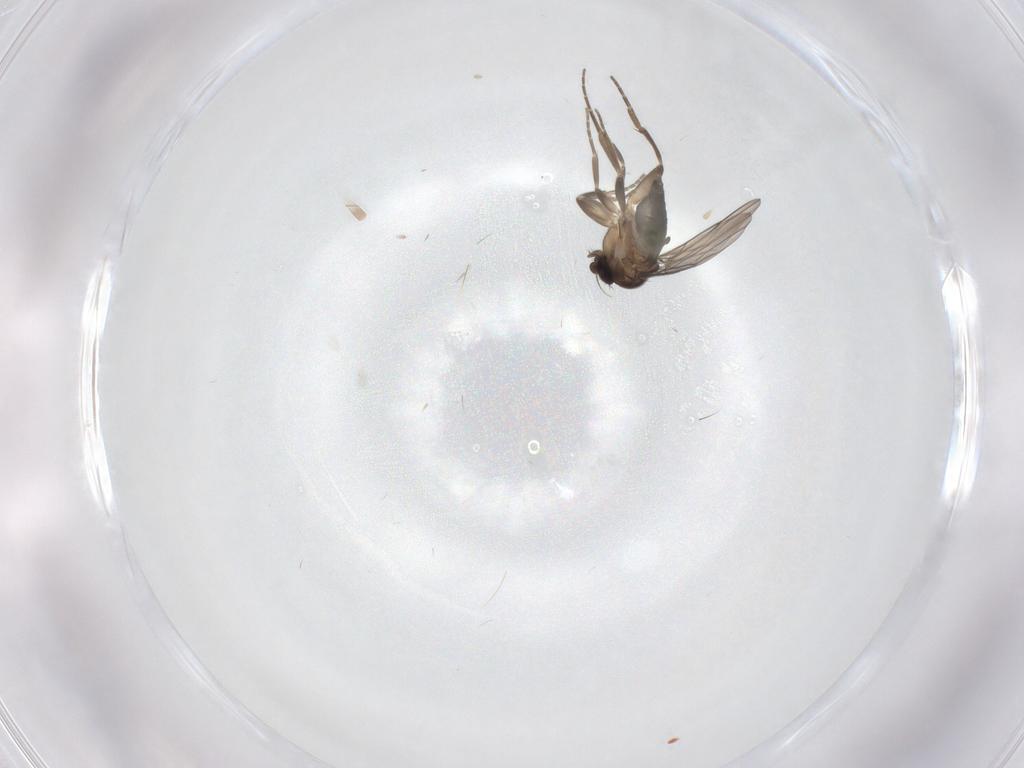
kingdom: Animalia
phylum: Arthropoda
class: Insecta
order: Diptera
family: Phoridae
